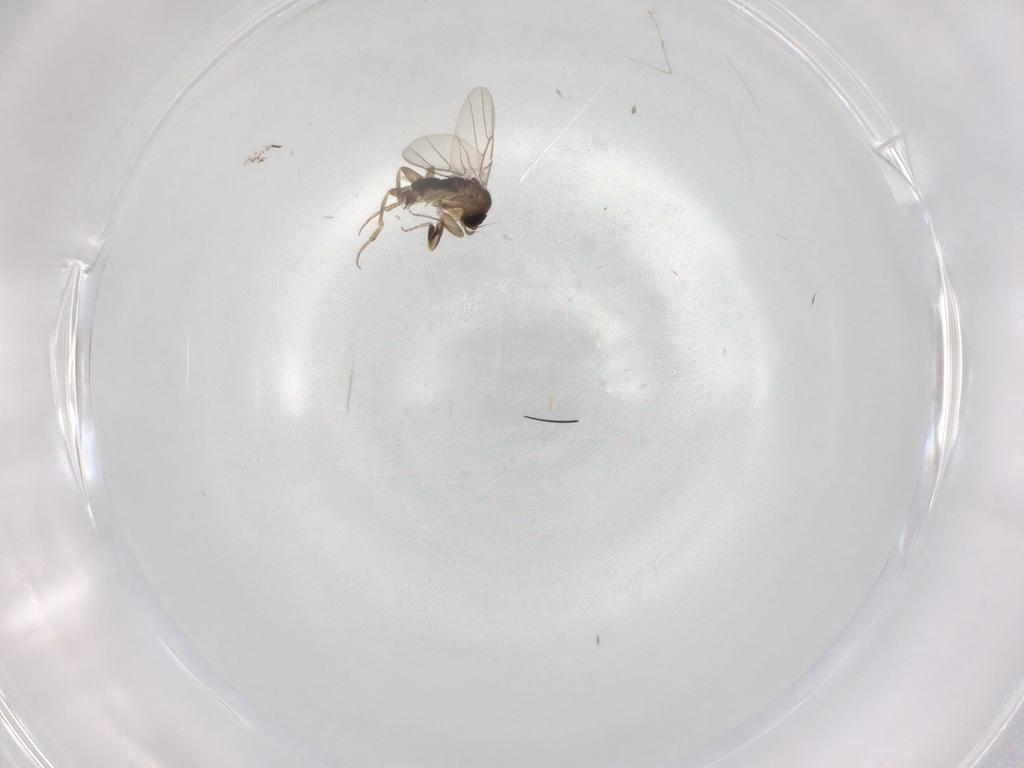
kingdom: Animalia
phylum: Arthropoda
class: Insecta
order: Diptera
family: Cecidomyiidae
